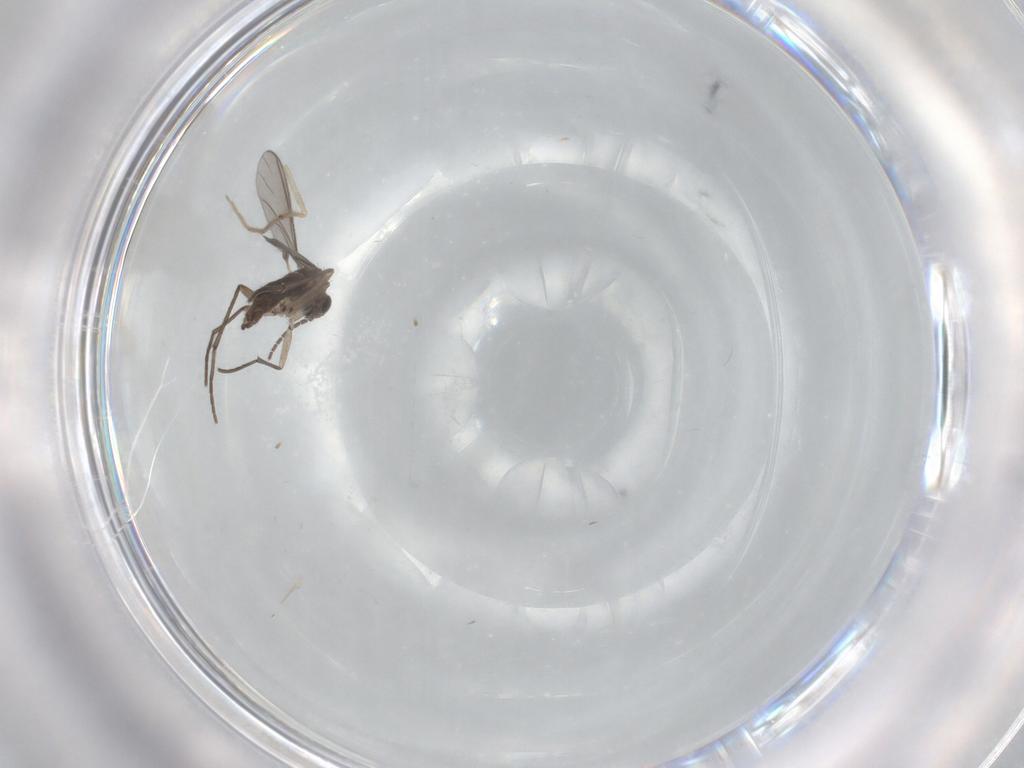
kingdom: Animalia
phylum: Arthropoda
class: Insecta
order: Diptera
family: Sciaridae
